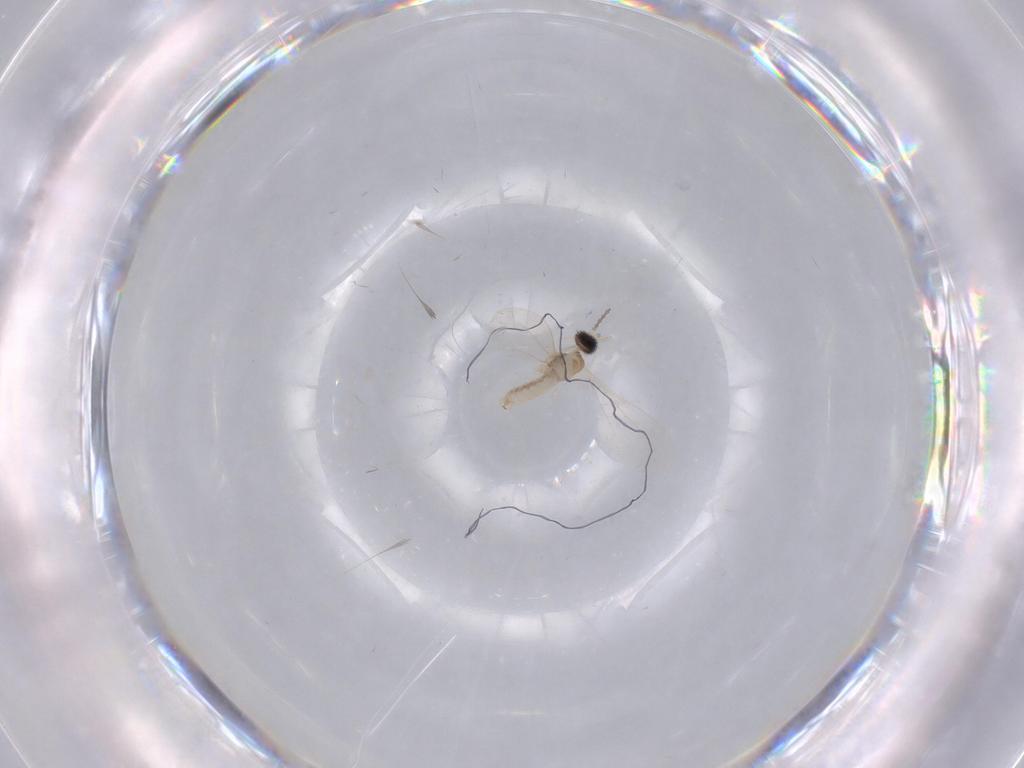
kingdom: Animalia
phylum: Arthropoda
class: Insecta
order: Diptera
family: Cecidomyiidae
